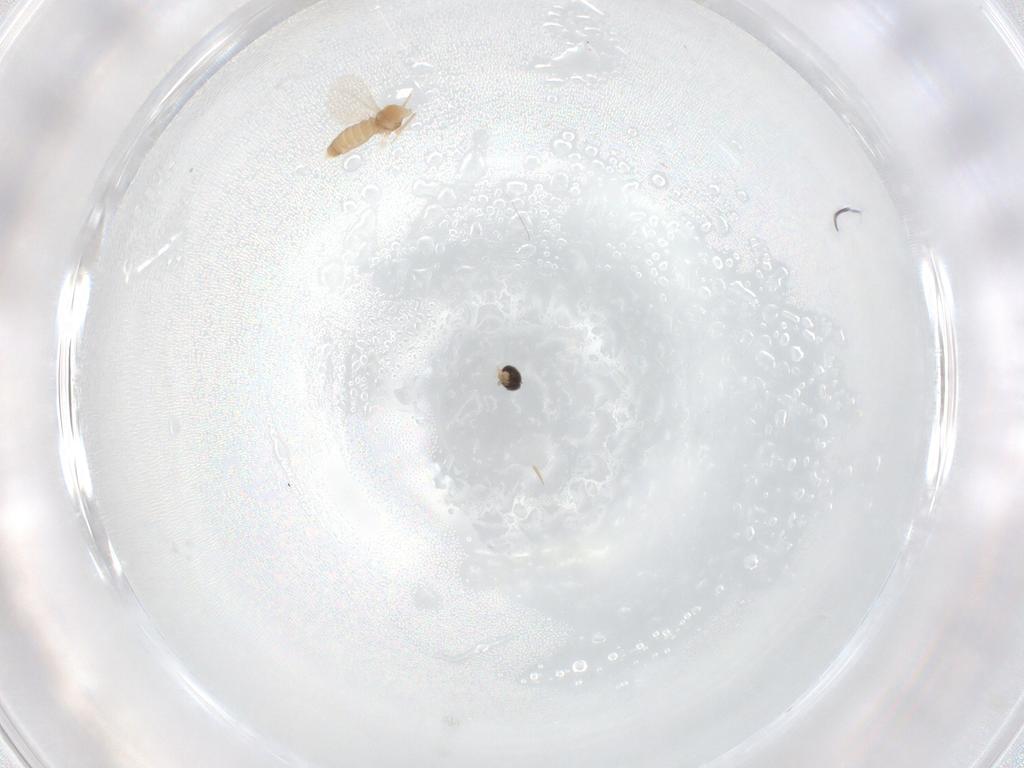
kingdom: Animalia
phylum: Arthropoda
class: Insecta
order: Diptera
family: Cecidomyiidae
